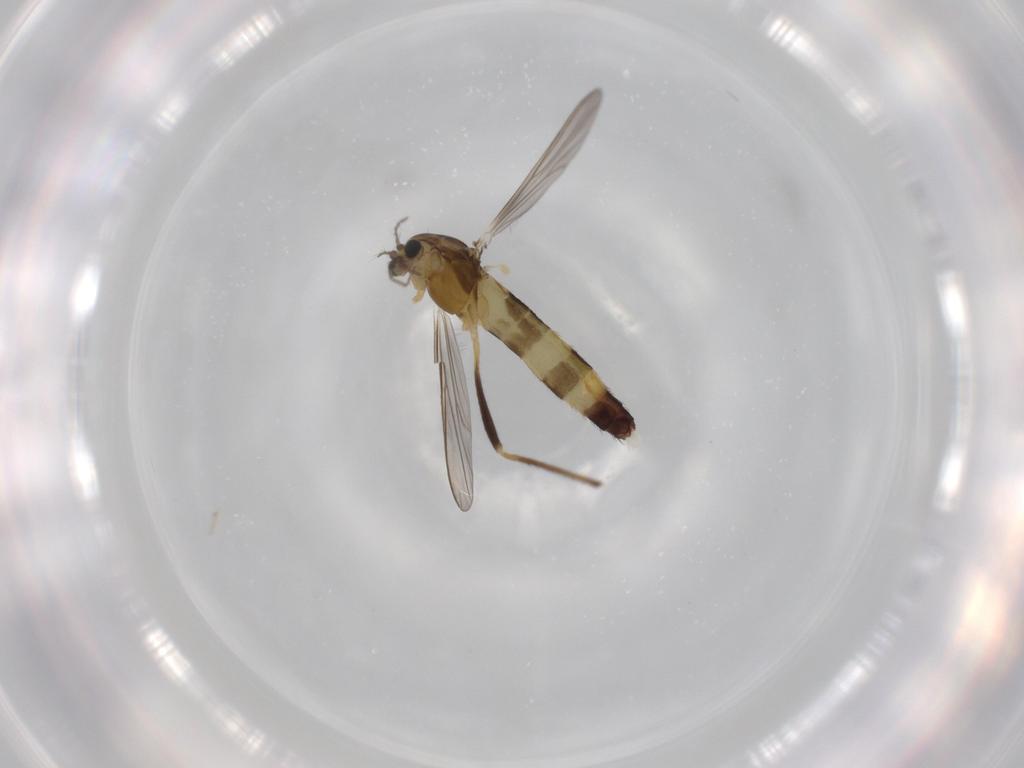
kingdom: Animalia
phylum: Arthropoda
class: Insecta
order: Diptera
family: Chironomidae
